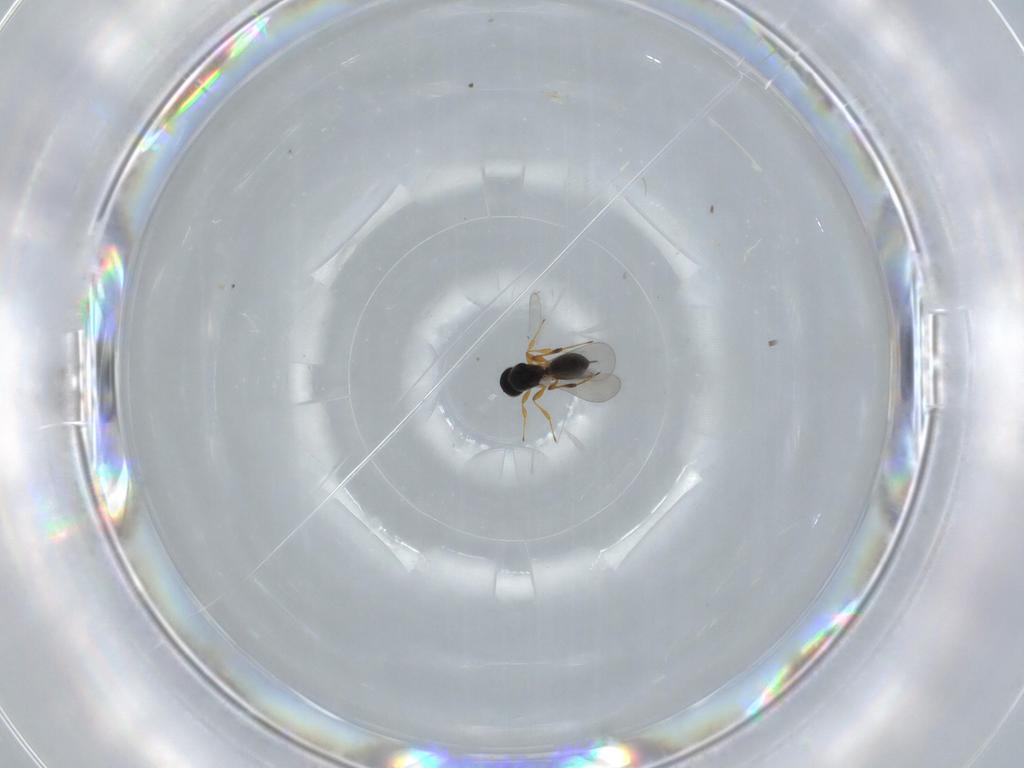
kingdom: Animalia
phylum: Arthropoda
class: Insecta
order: Hymenoptera
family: Platygastridae
